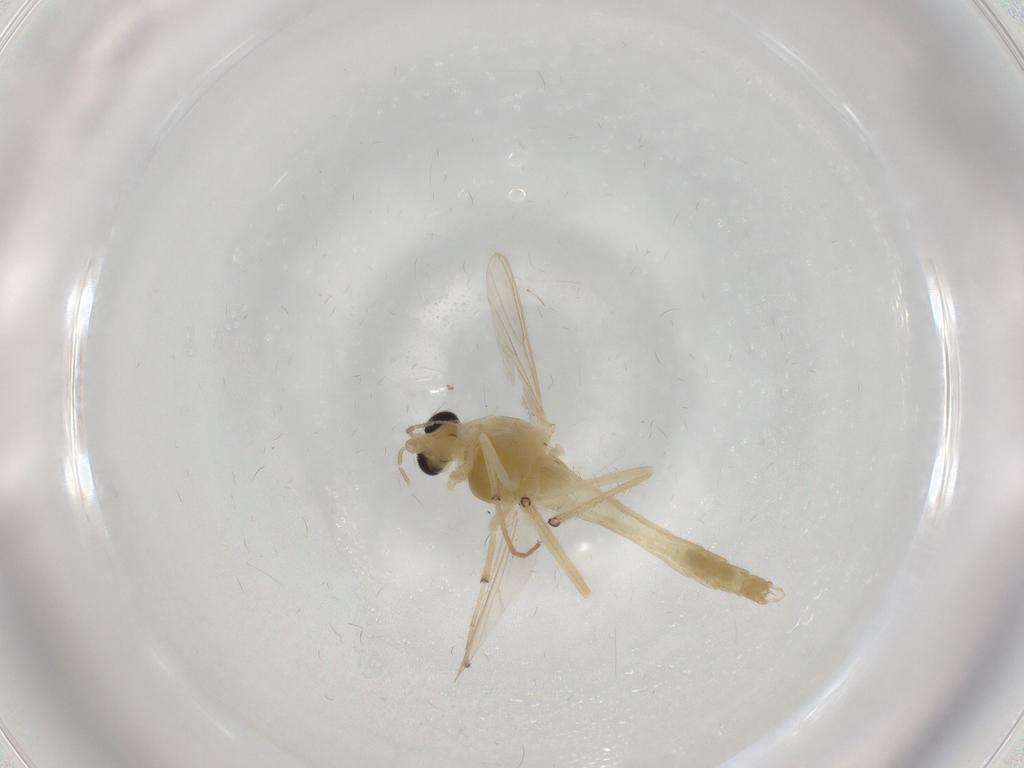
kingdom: Animalia
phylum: Arthropoda
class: Insecta
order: Diptera
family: Chironomidae
